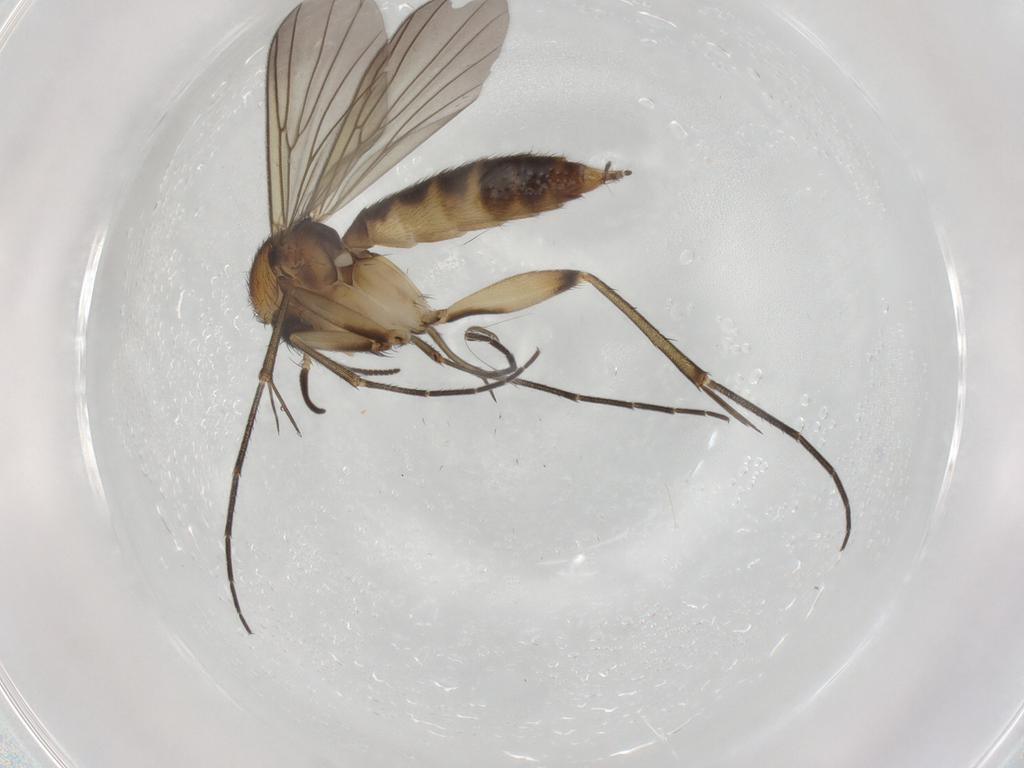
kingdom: Animalia
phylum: Arthropoda
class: Insecta
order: Diptera
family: Mycetophilidae
